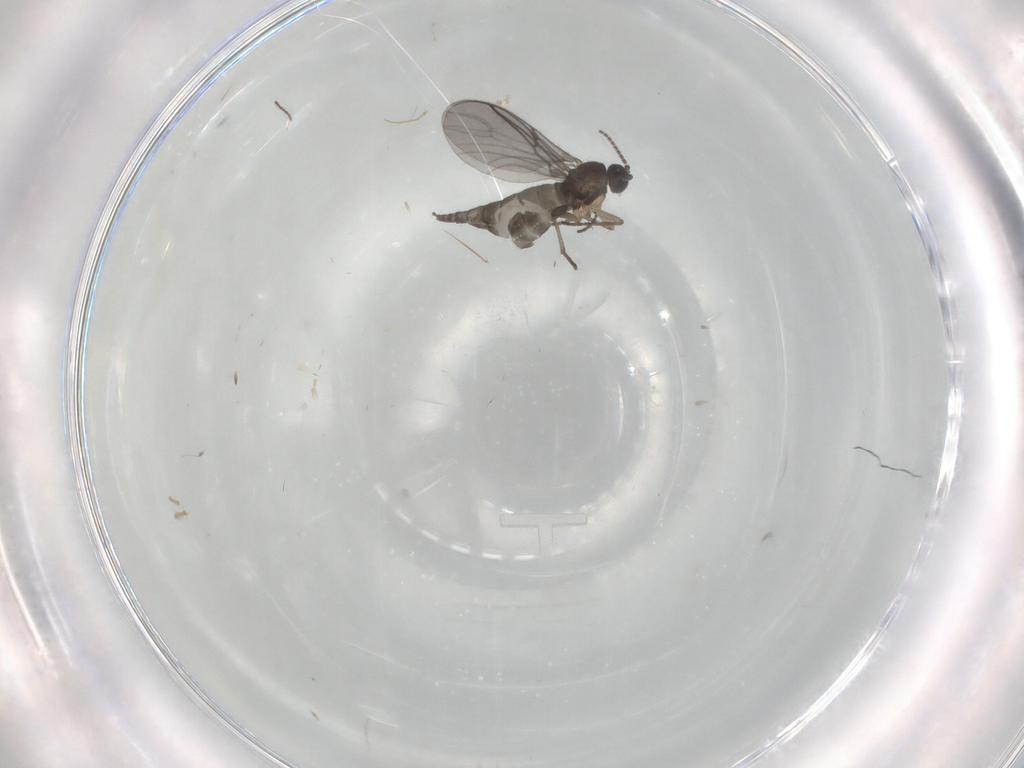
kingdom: Animalia
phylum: Arthropoda
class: Insecta
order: Diptera
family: Sciaridae
